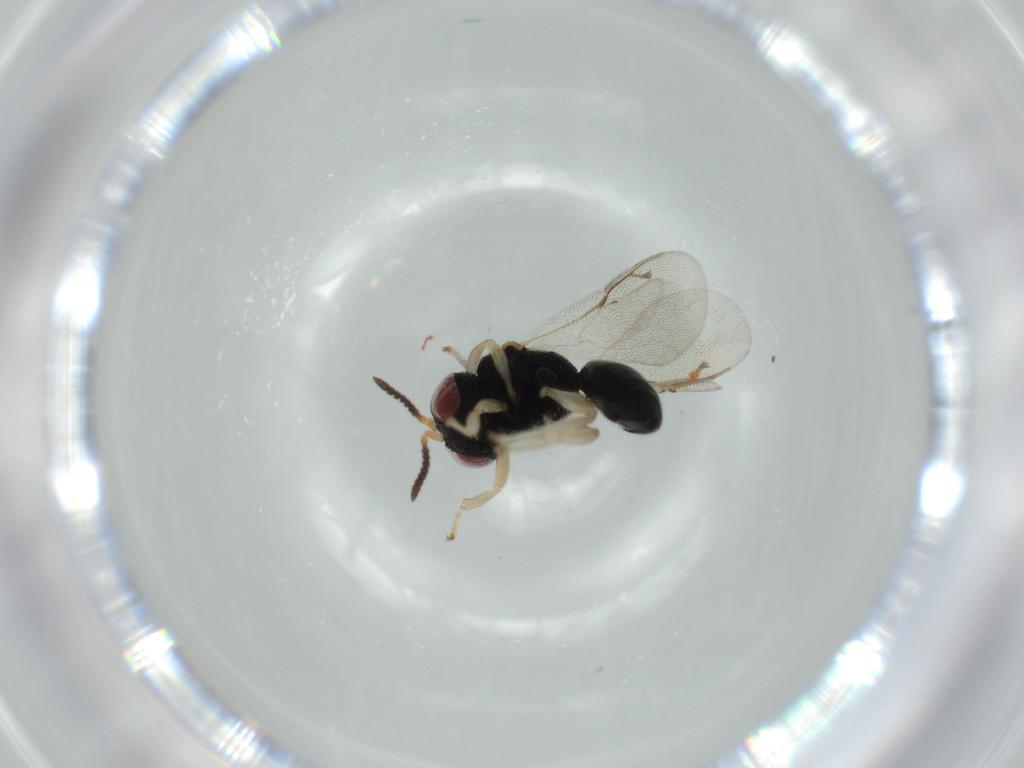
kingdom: Animalia
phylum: Arthropoda
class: Insecta
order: Hymenoptera
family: Eurytomidae
